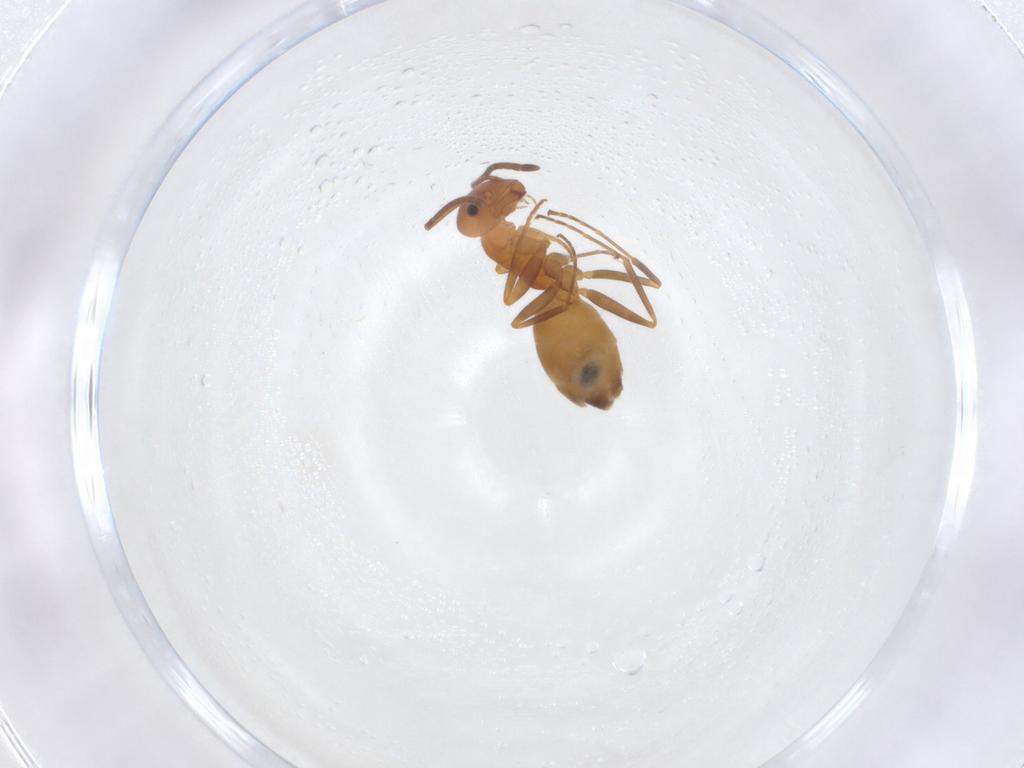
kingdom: Animalia
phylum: Arthropoda
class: Insecta
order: Hymenoptera
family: Formicidae
